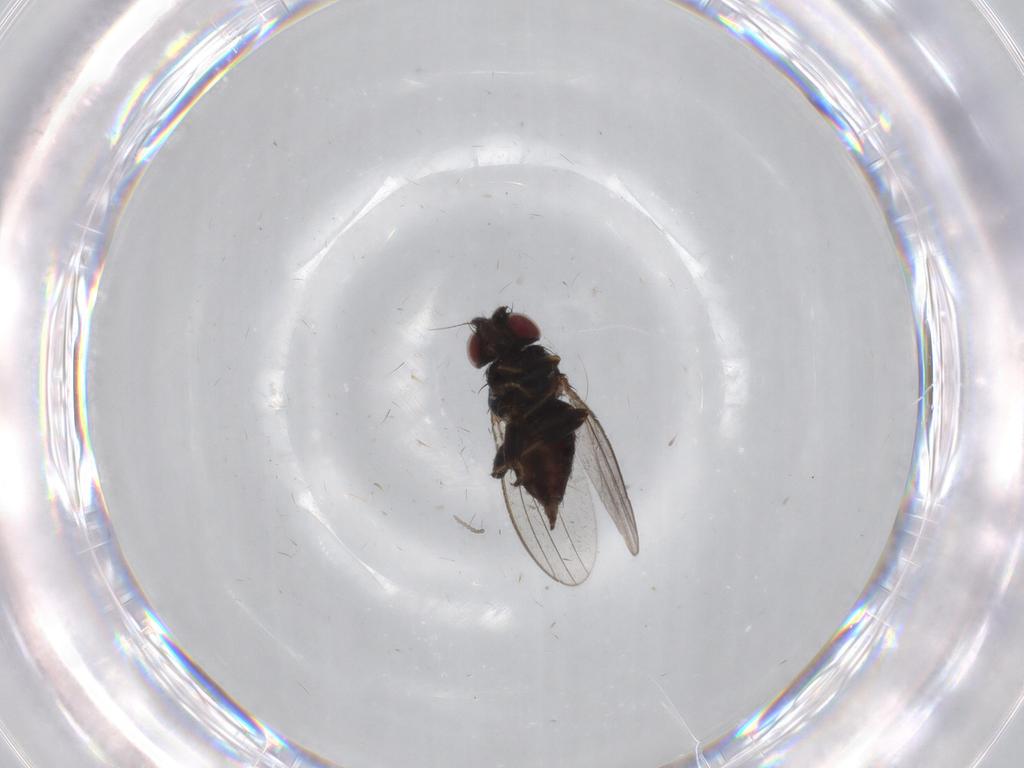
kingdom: Animalia
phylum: Arthropoda
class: Insecta
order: Diptera
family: Milichiidae
